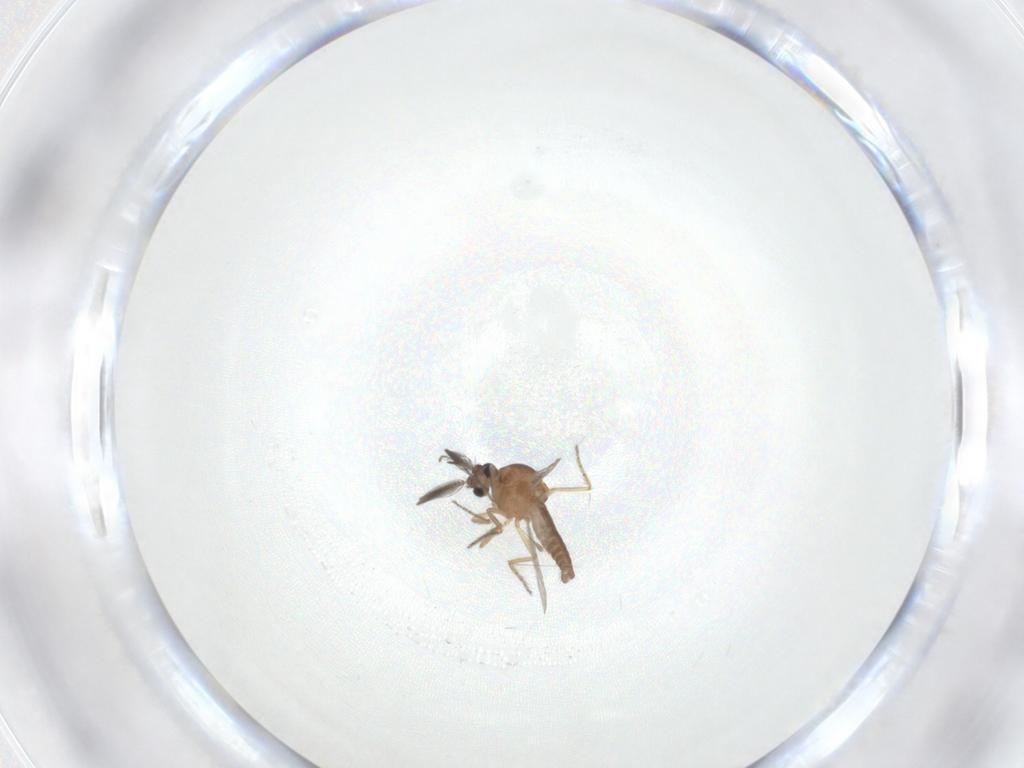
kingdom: Animalia
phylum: Arthropoda
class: Insecta
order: Diptera
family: Ceratopogonidae
